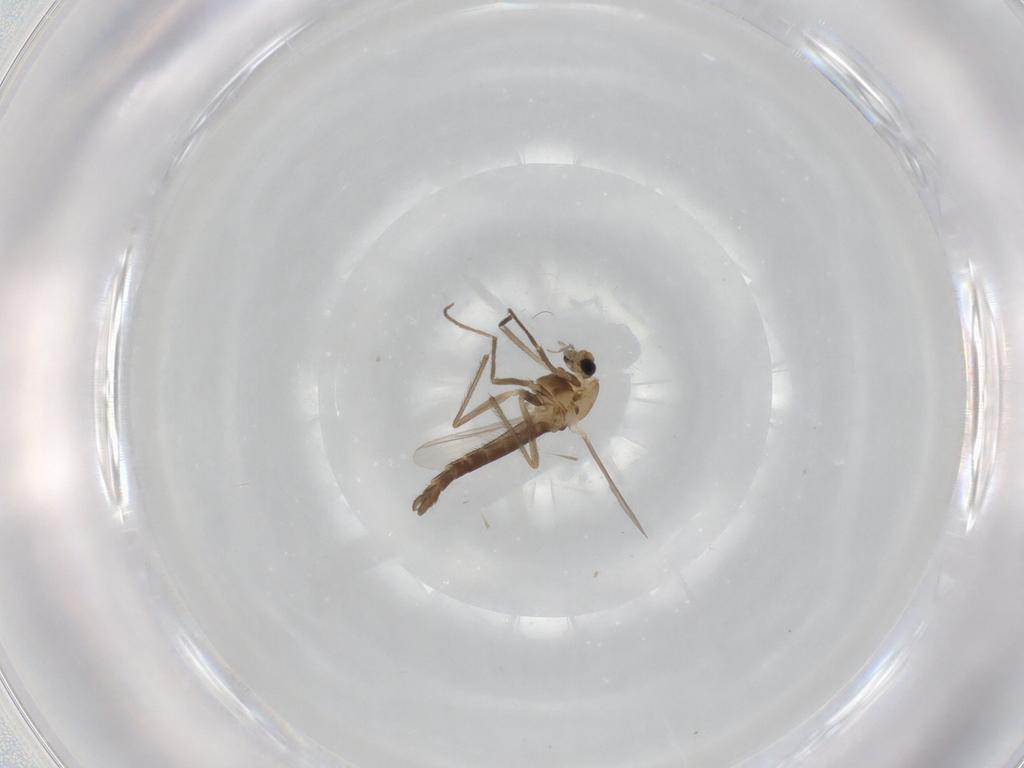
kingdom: Animalia
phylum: Arthropoda
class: Insecta
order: Diptera
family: Chironomidae
